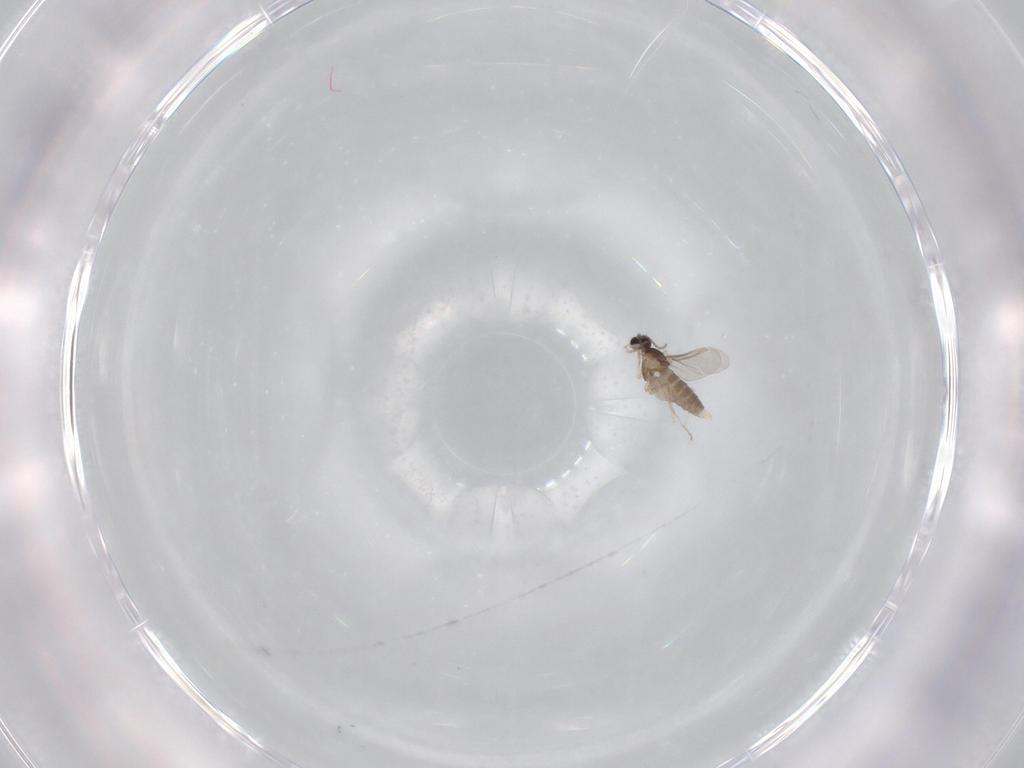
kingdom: Animalia
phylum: Arthropoda
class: Insecta
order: Diptera
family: Cecidomyiidae
